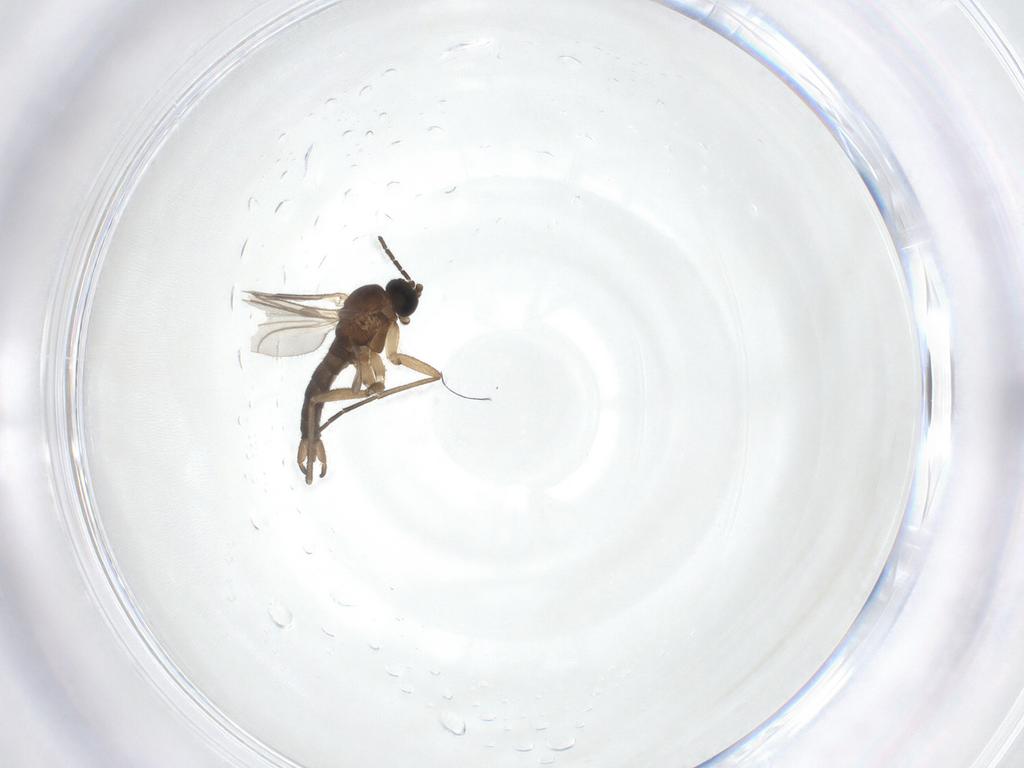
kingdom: Animalia
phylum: Arthropoda
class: Insecta
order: Diptera
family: Sciaridae
